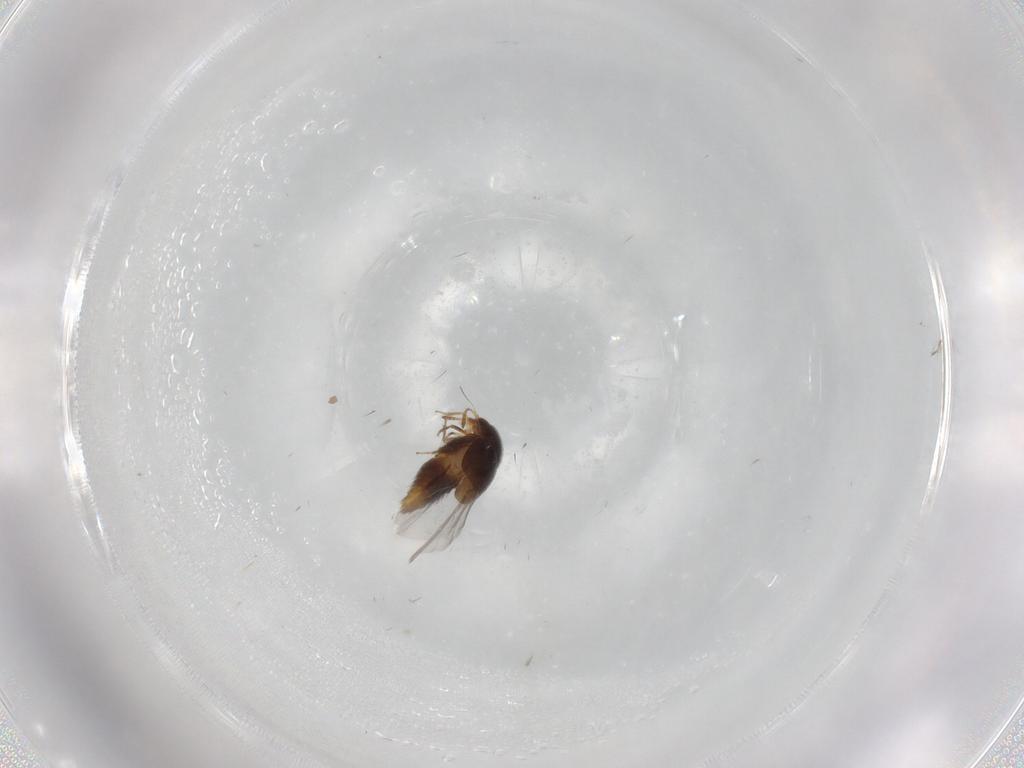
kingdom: Animalia
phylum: Arthropoda
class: Insecta
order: Coleoptera
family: Staphylinidae
